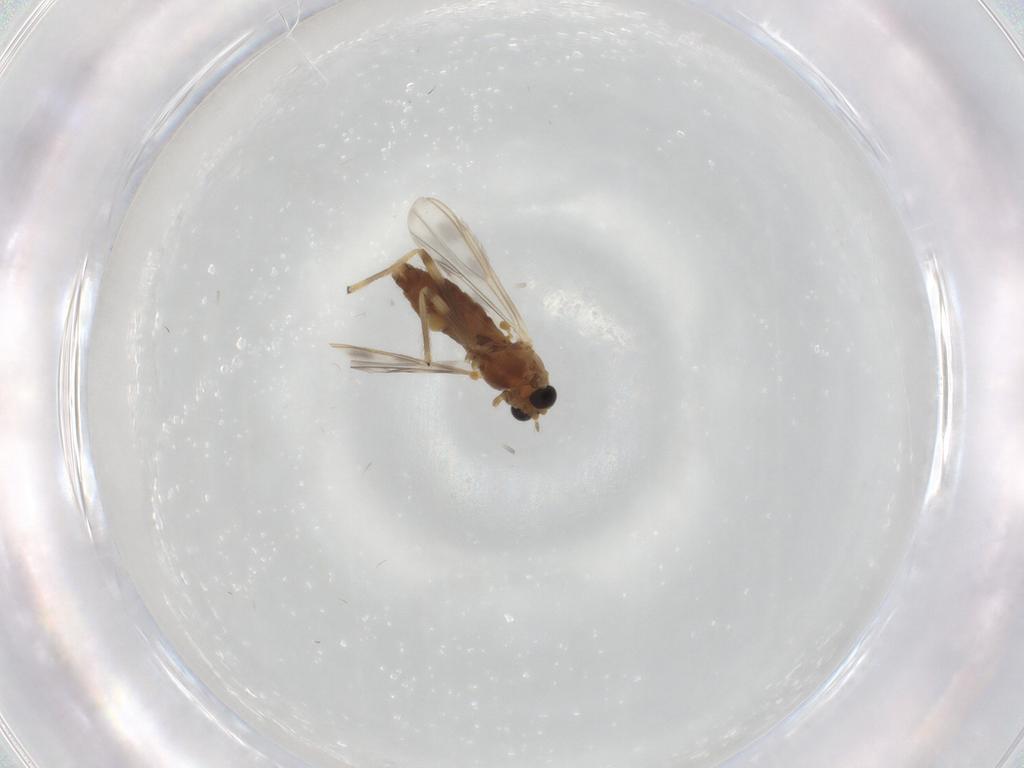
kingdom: Animalia
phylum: Arthropoda
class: Insecta
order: Diptera
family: Chironomidae
